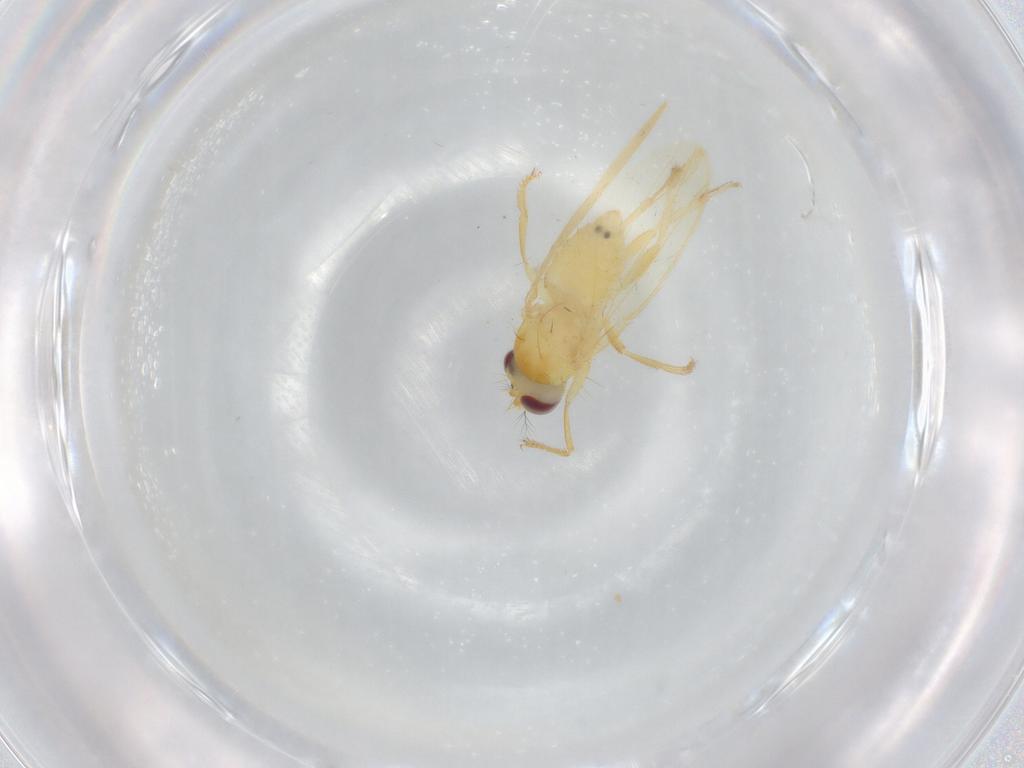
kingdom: Animalia
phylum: Arthropoda
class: Insecta
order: Diptera
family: Periscelididae
